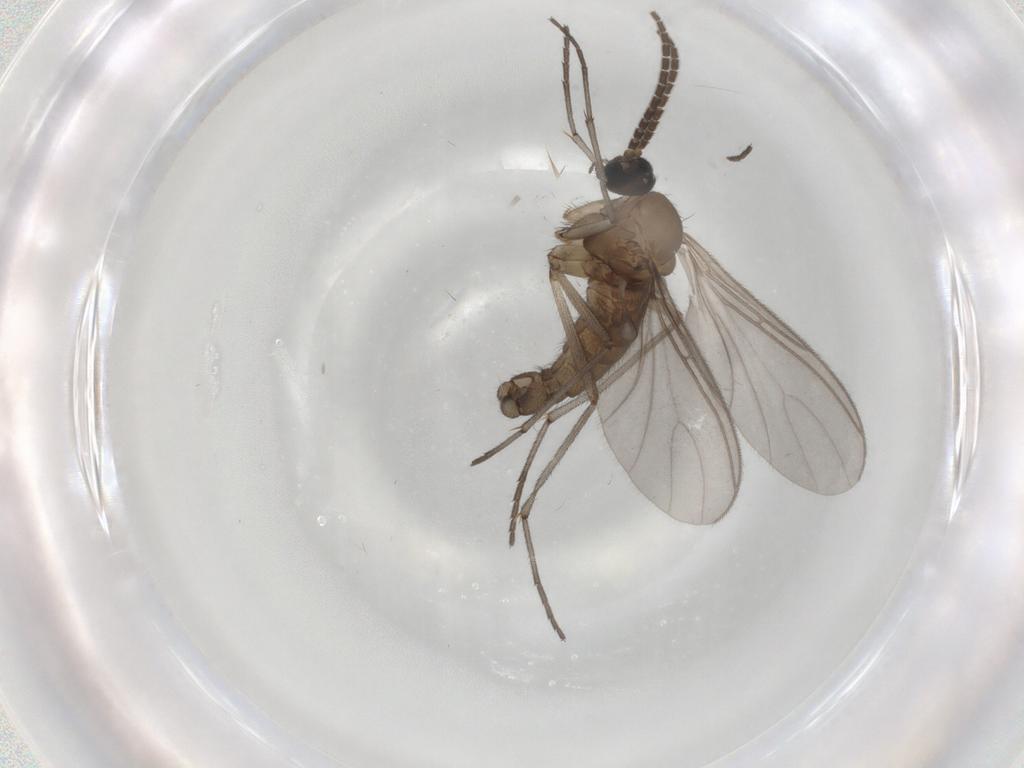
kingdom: Animalia
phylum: Arthropoda
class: Insecta
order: Diptera
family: Sciaridae
